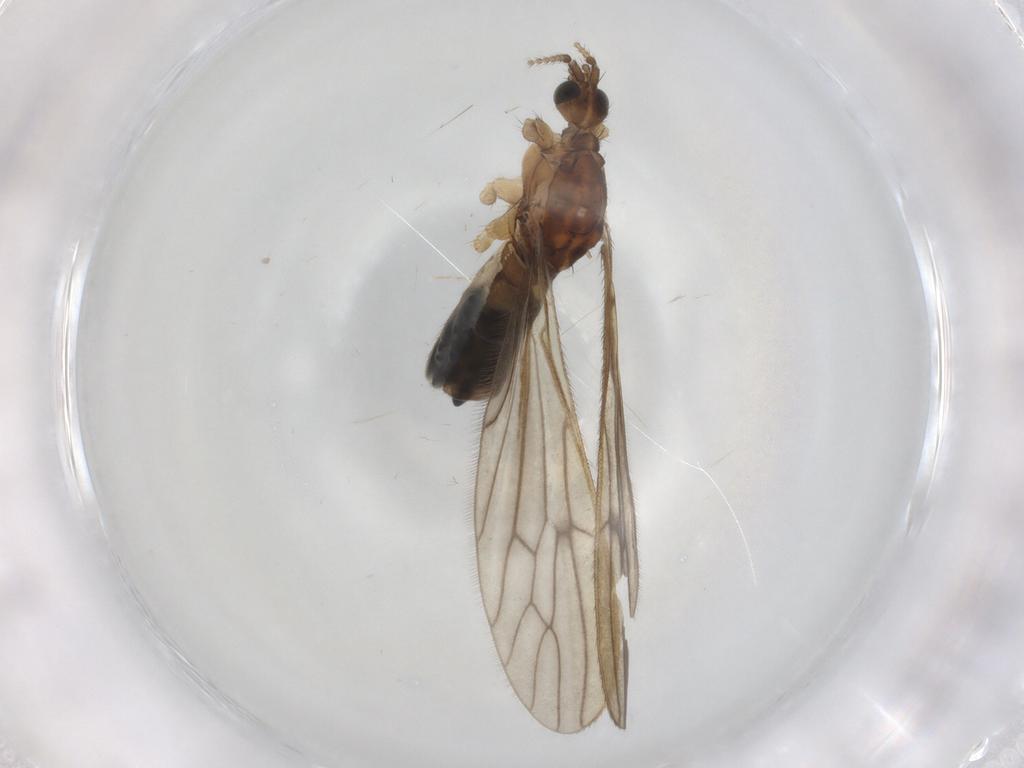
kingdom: Animalia
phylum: Arthropoda
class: Insecta
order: Diptera
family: Limoniidae
